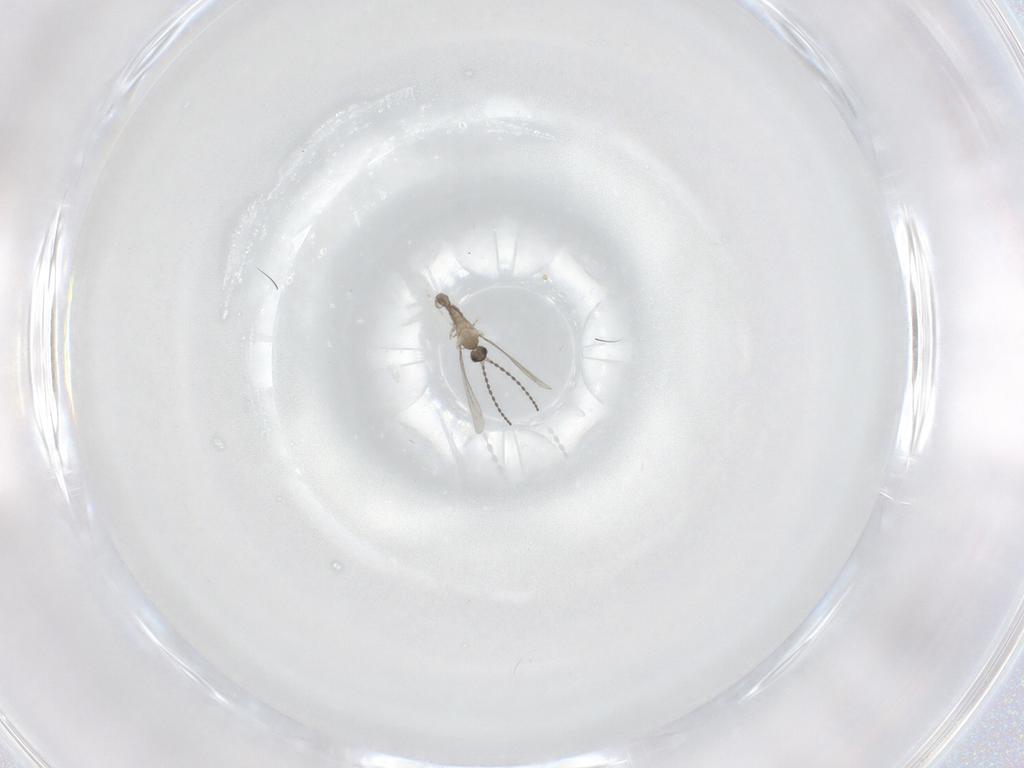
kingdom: Animalia
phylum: Arthropoda
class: Insecta
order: Diptera
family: Cecidomyiidae
